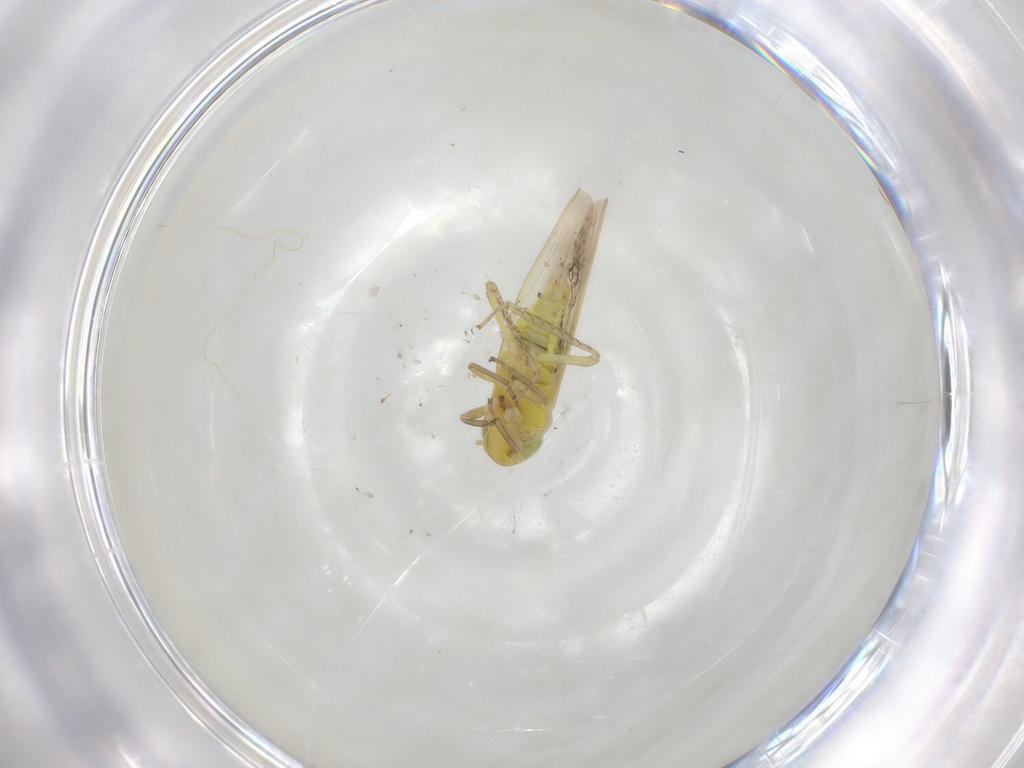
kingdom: Animalia
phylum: Arthropoda
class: Insecta
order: Hemiptera
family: Cicadellidae
